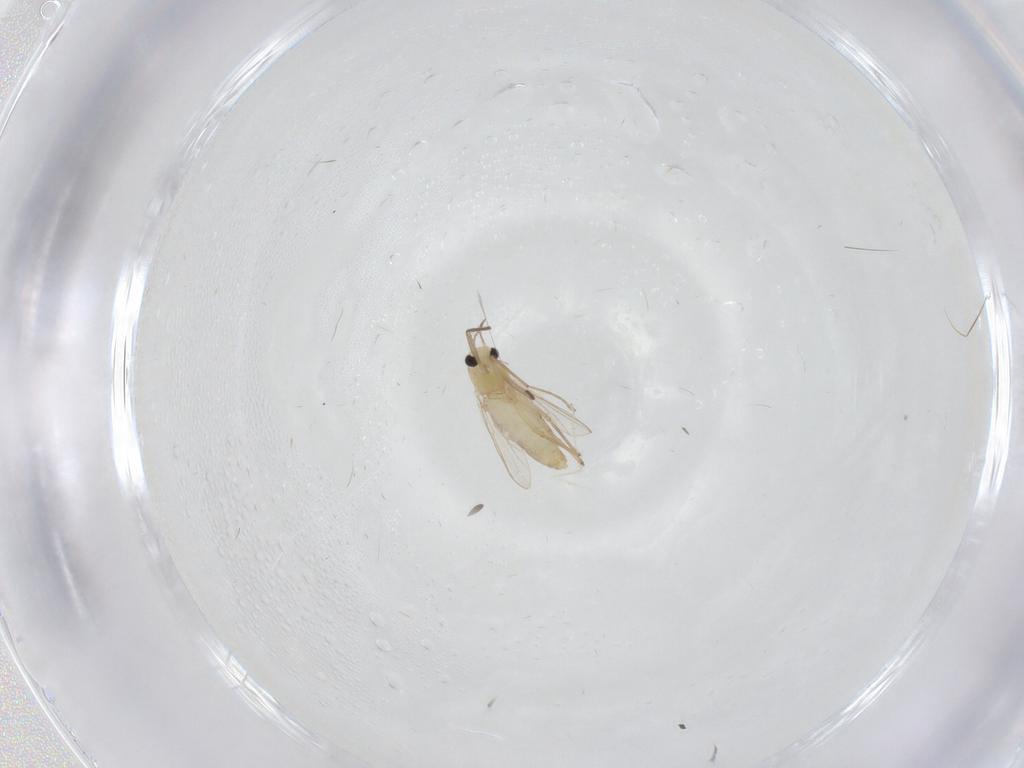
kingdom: Animalia
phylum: Arthropoda
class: Insecta
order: Diptera
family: Chironomidae
